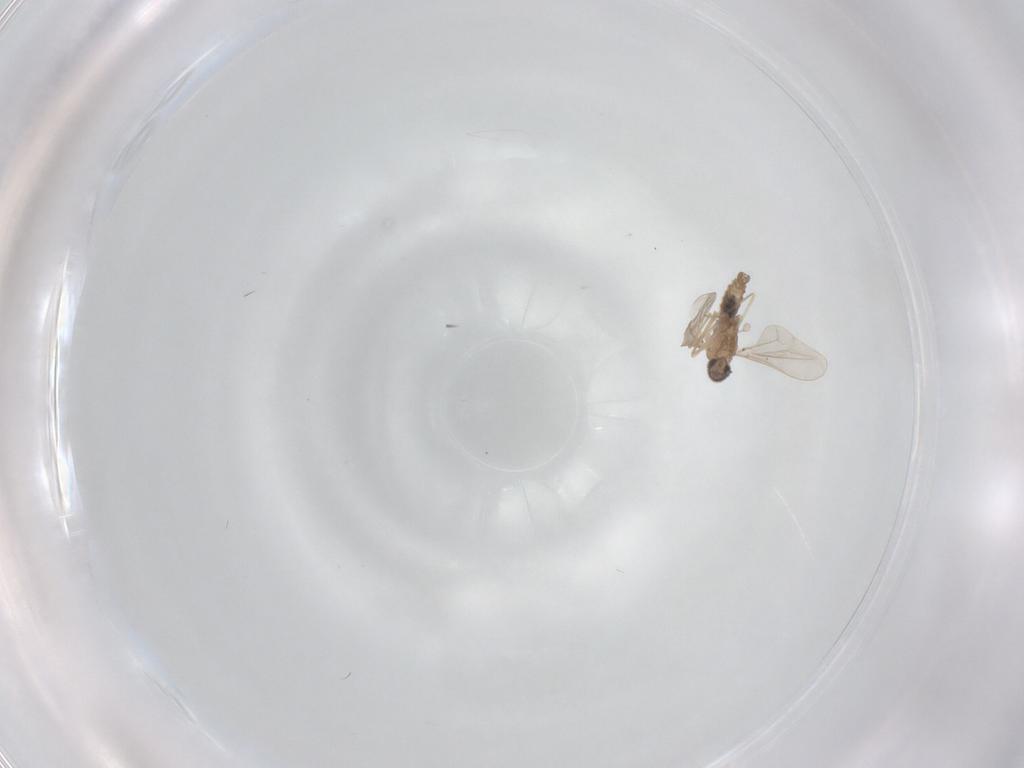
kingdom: Animalia
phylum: Arthropoda
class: Insecta
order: Diptera
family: Cecidomyiidae
